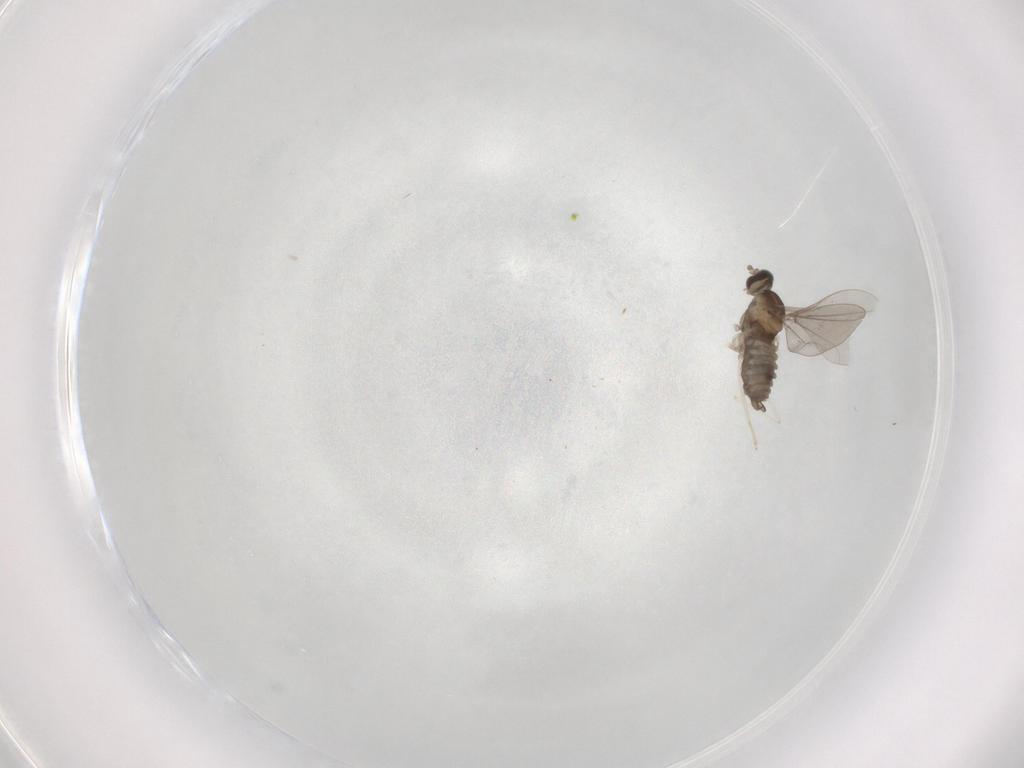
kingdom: Animalia
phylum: Arthropoda
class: Insecta
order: Diptera
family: Cecidomyiidae
